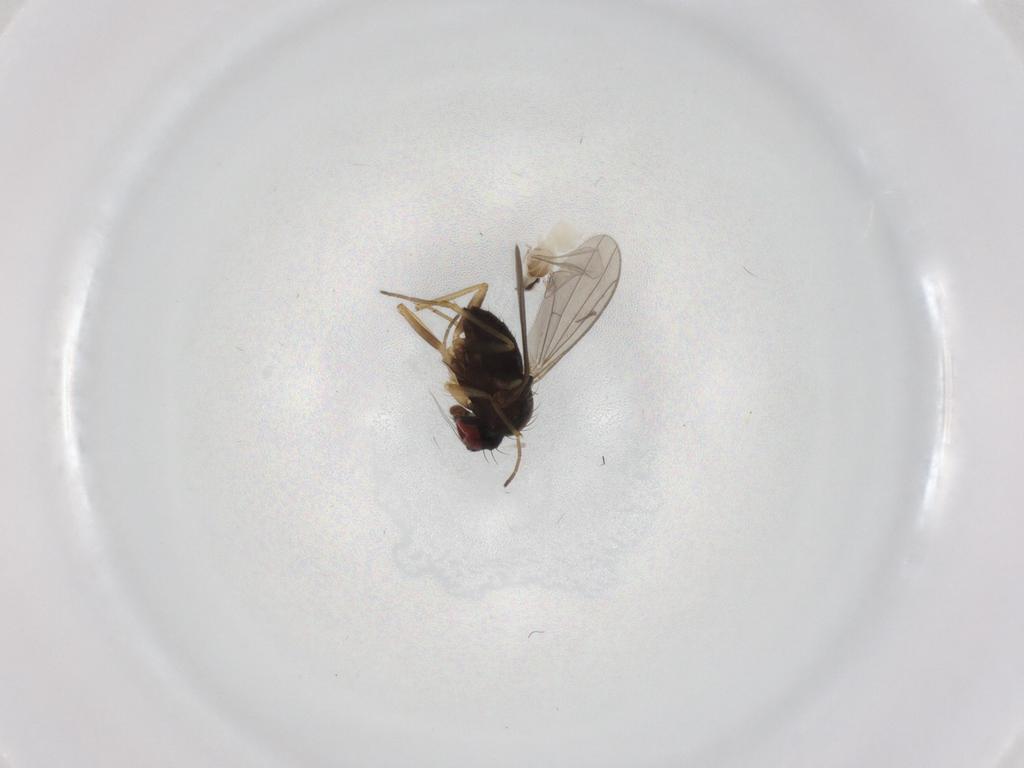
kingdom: Animalia
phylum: Arthropoda
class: Insecta
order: Diptera
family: Cecidomyiidae
